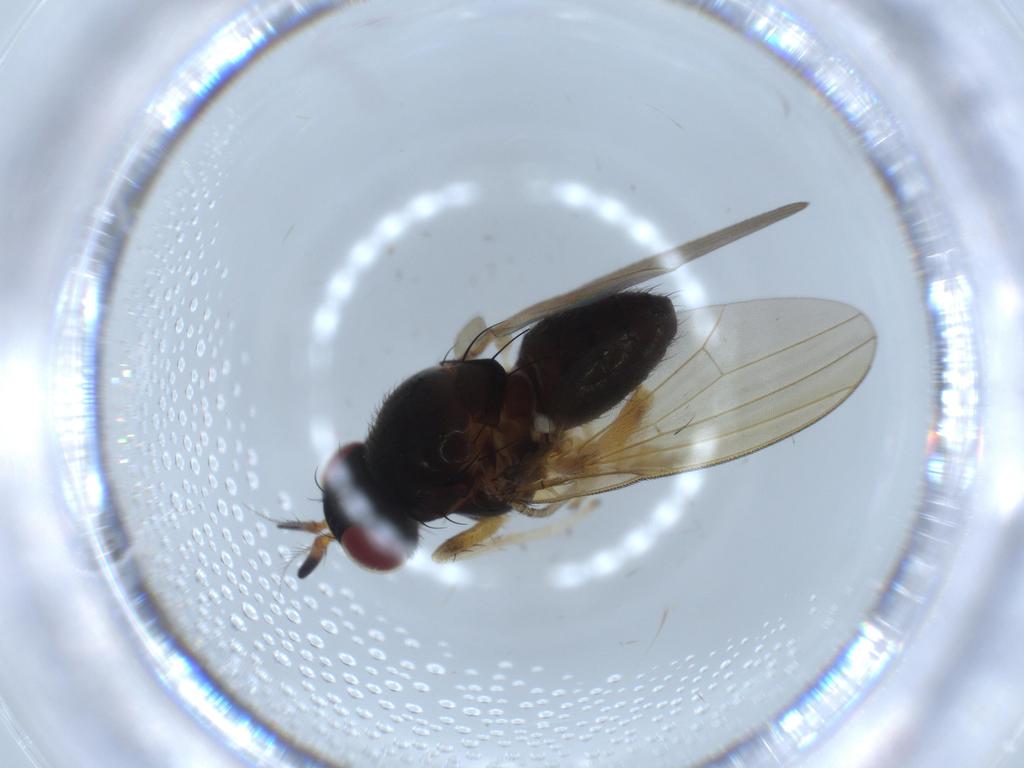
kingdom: Animalia
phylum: Arthropoda
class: Insecta
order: Diptera
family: Lauxaniidae
